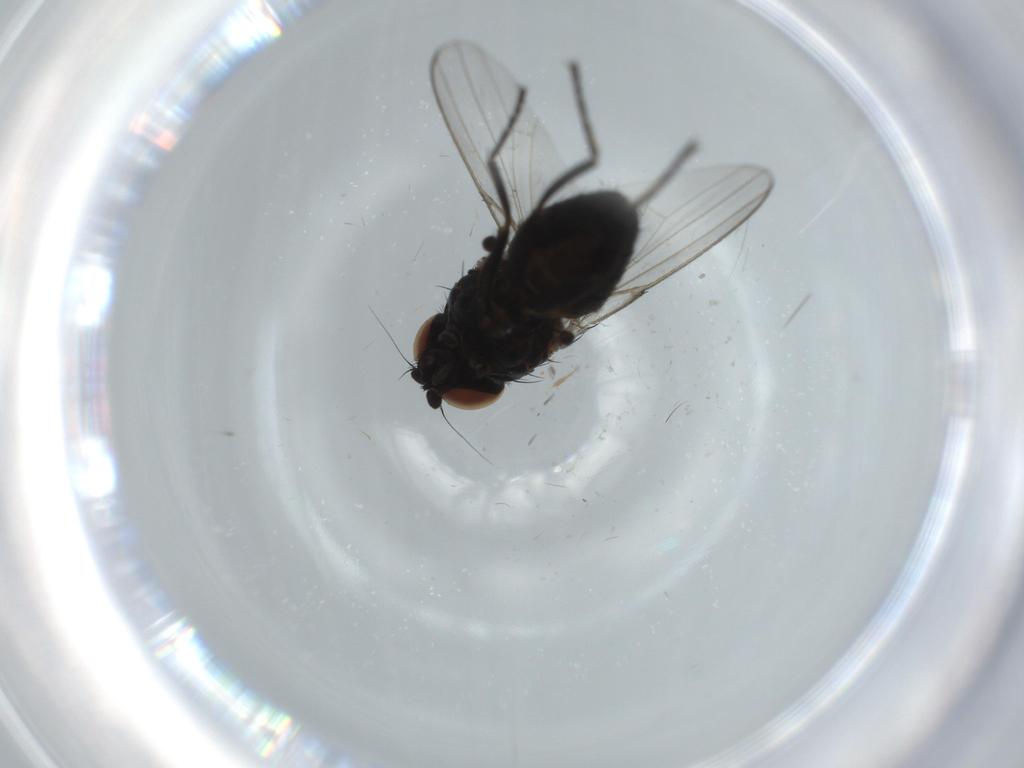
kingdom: Animalia
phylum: Arthropoda
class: Insecta
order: Diptera
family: Milichiidae
